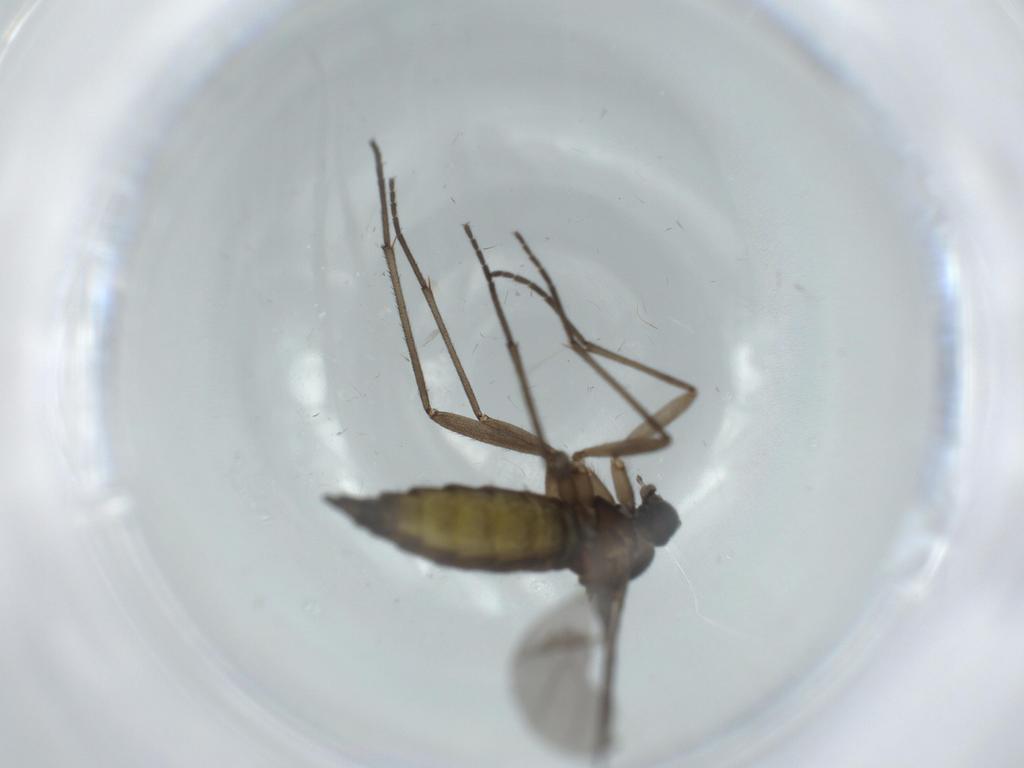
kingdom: Animalia
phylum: Arthropoda
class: Insecta
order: Diptera
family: Sciaridae
